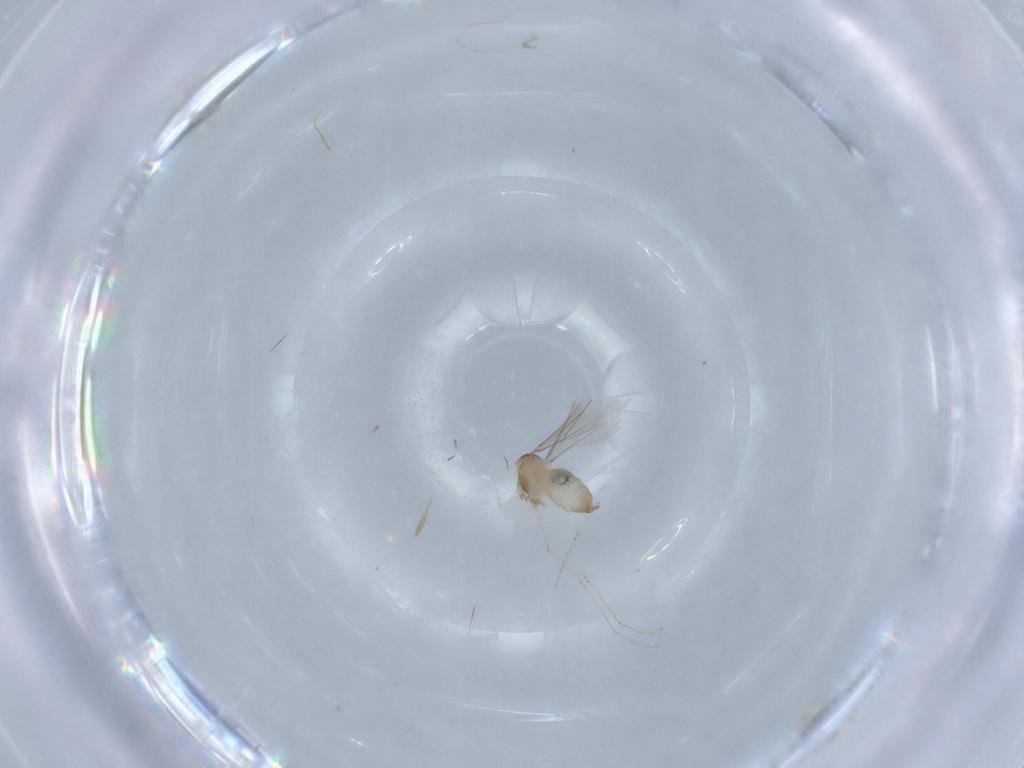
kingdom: Animalia
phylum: Arthropoda
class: Insecta
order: Diptera
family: Cecidomyiidae
